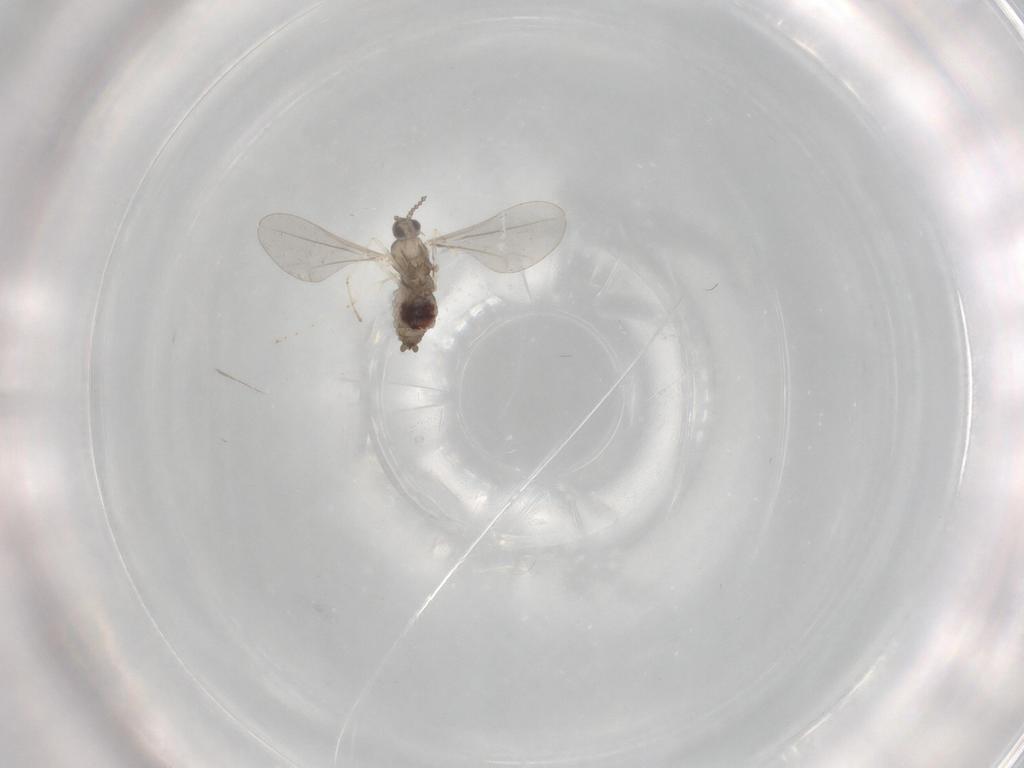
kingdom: Animalia
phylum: Arthropoda
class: Insecta
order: Diptera
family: Cecidomyiidae
